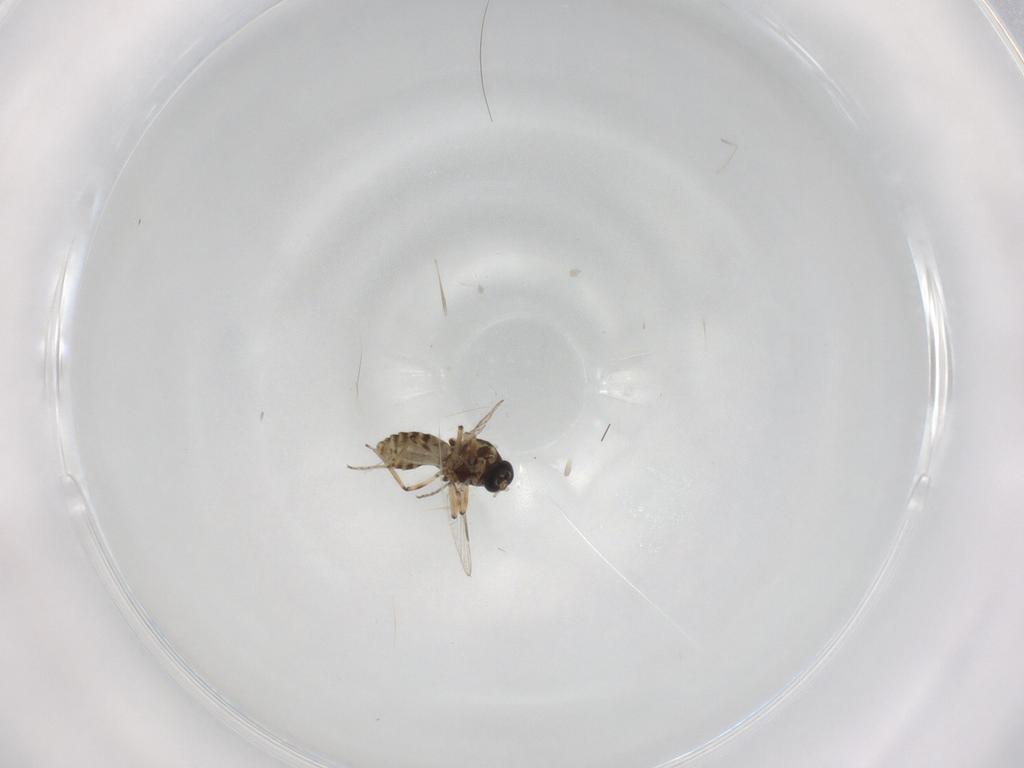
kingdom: Animalia
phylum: Arthropoda
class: Insecta
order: Diptera
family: Ceratopogonidae
